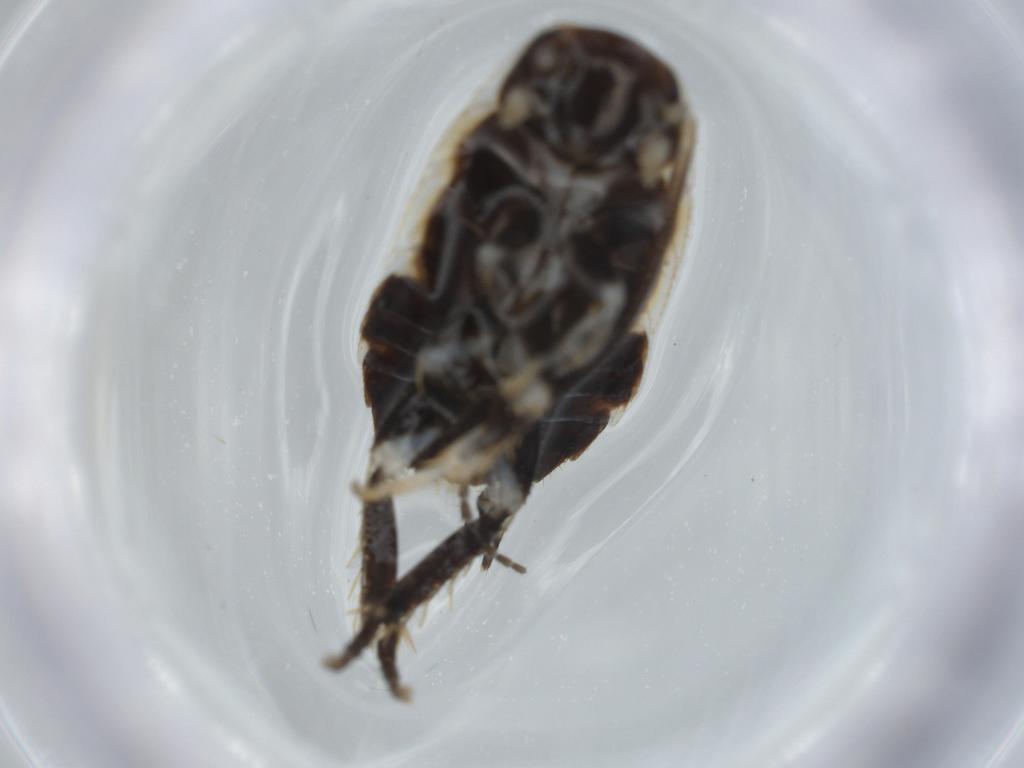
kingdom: Animalia
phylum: Arthropoda
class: Insecta
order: Blattodea
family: Ectobiidae
